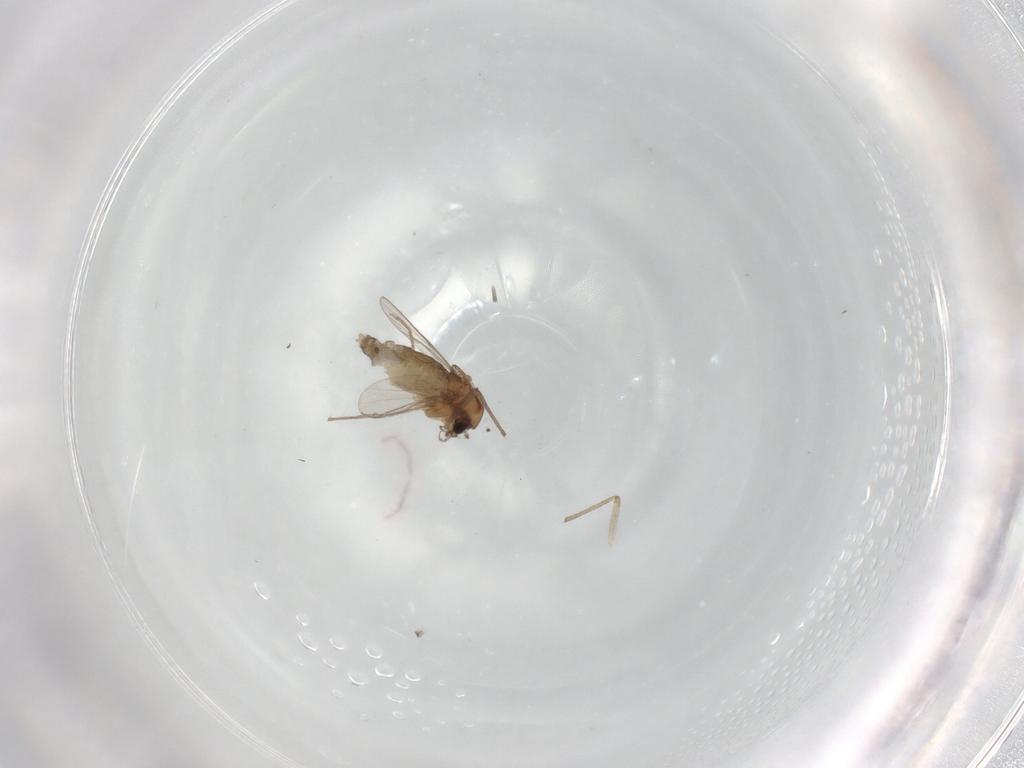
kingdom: Animalia
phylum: Arthropoda
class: Insecta
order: Diptera
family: Chironomidae
